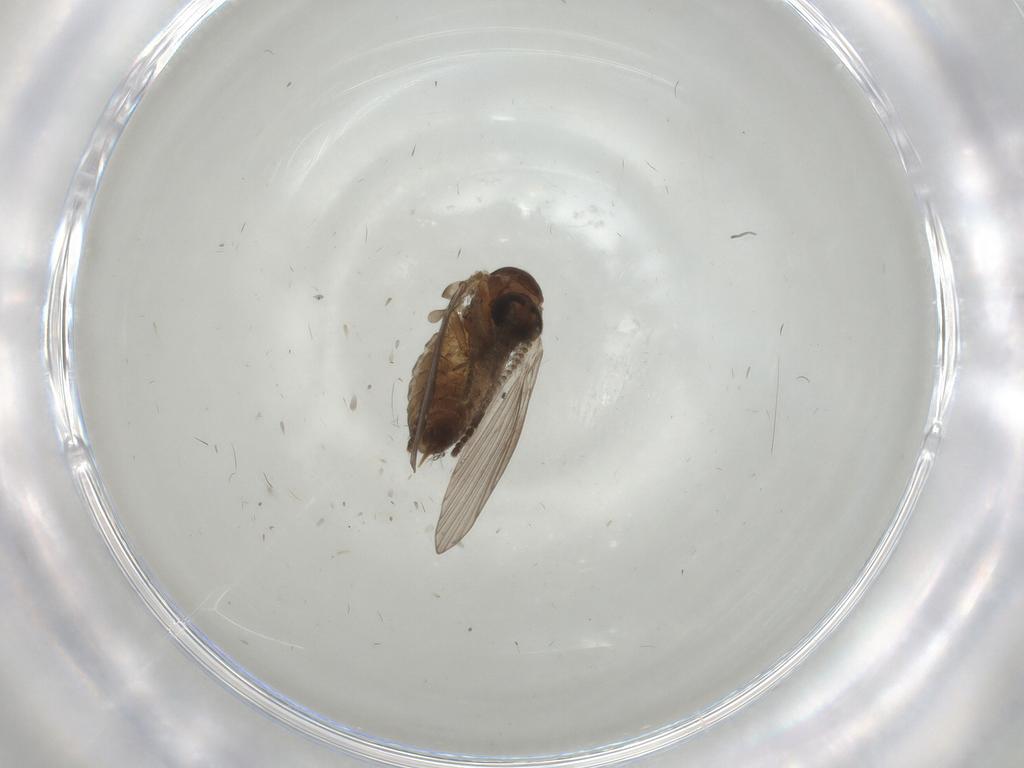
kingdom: Animalia
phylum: Arthropoda
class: Insecta
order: Diptera
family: Psychodidae
